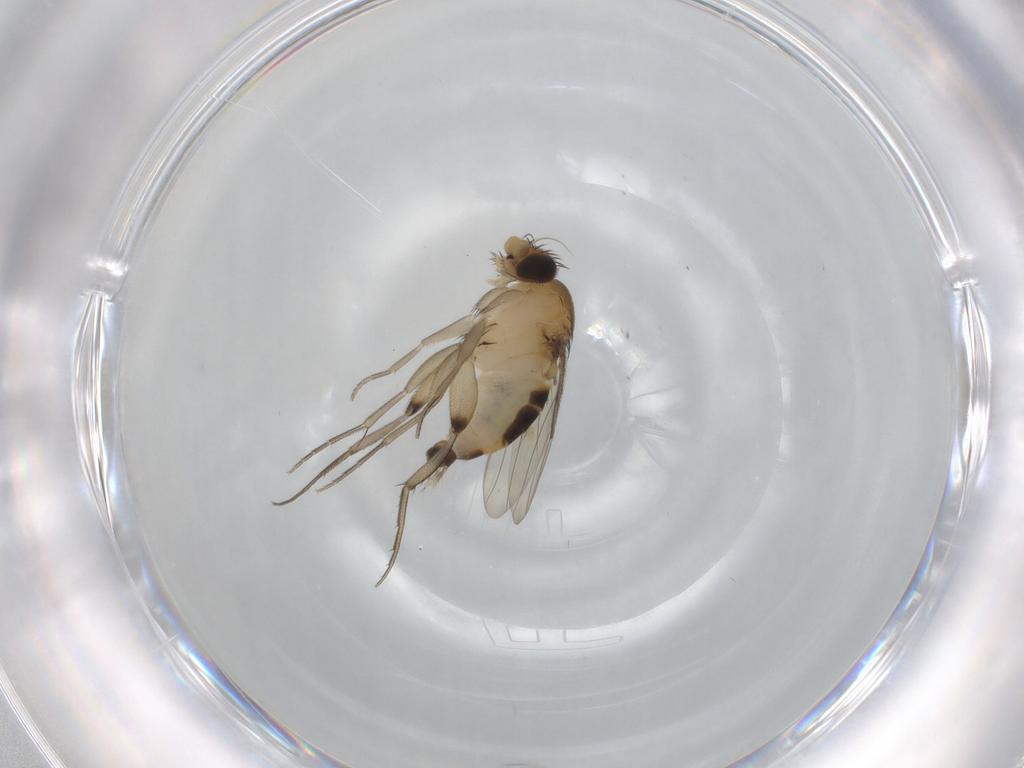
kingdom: Animalia
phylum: Arthropoda
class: Insecta
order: Diptera
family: Phoridae
